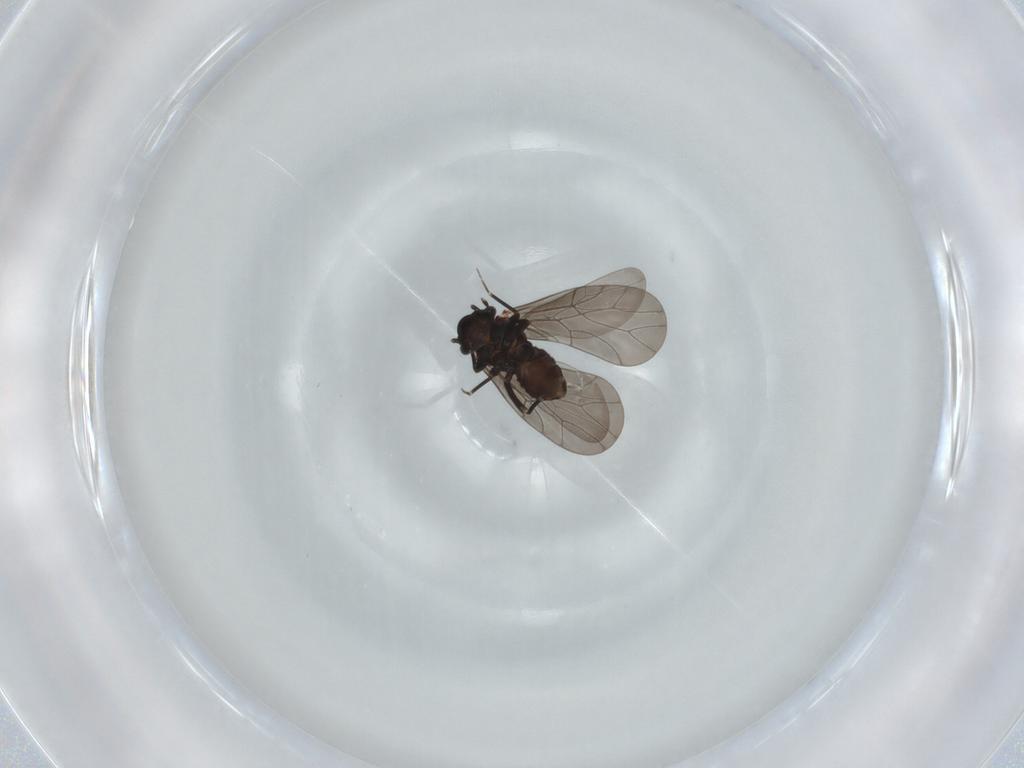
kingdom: Animalia
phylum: Arthropoda
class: Insecta
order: Psocodea
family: Lepidopsocidae
